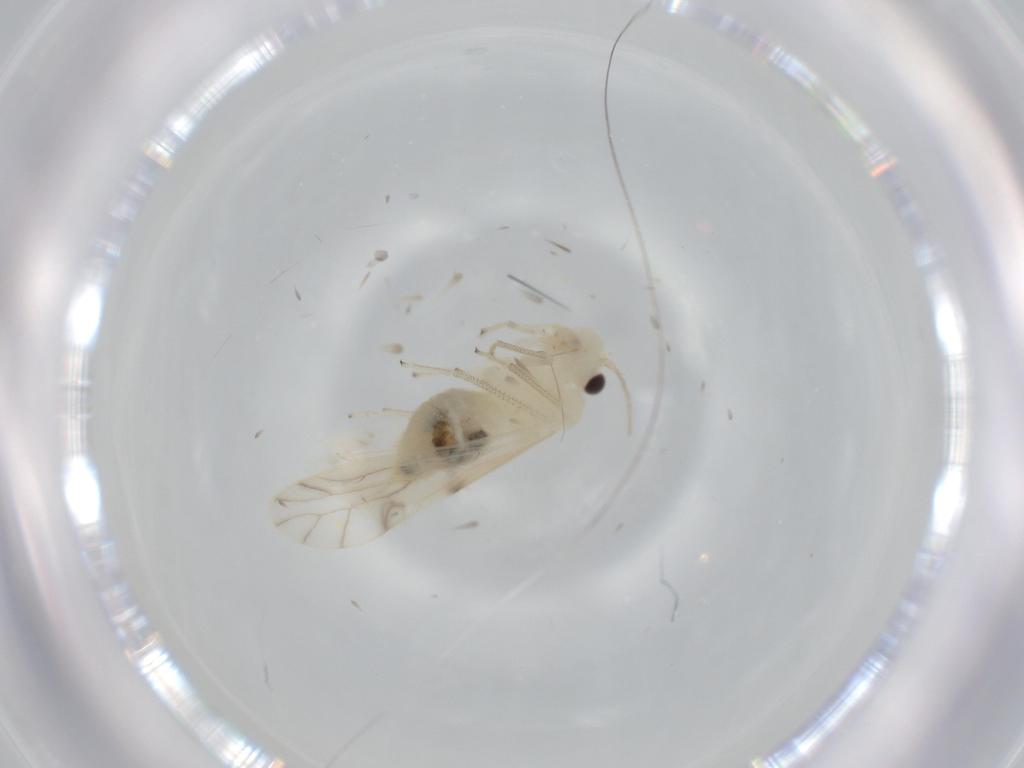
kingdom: Animalia
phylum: Arthropoda
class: Insecta
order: Psocodea
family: Caeciliusidae
